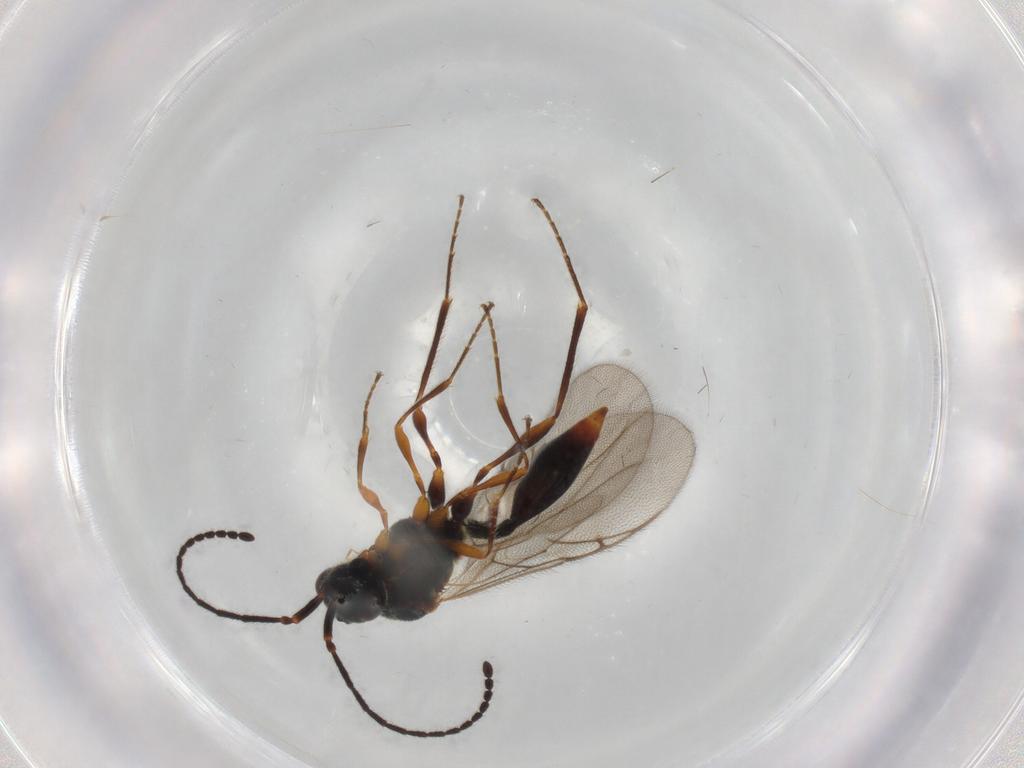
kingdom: Animalia
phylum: Arthropoda
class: Insecta
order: Hymenoptera
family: Diapriidae
